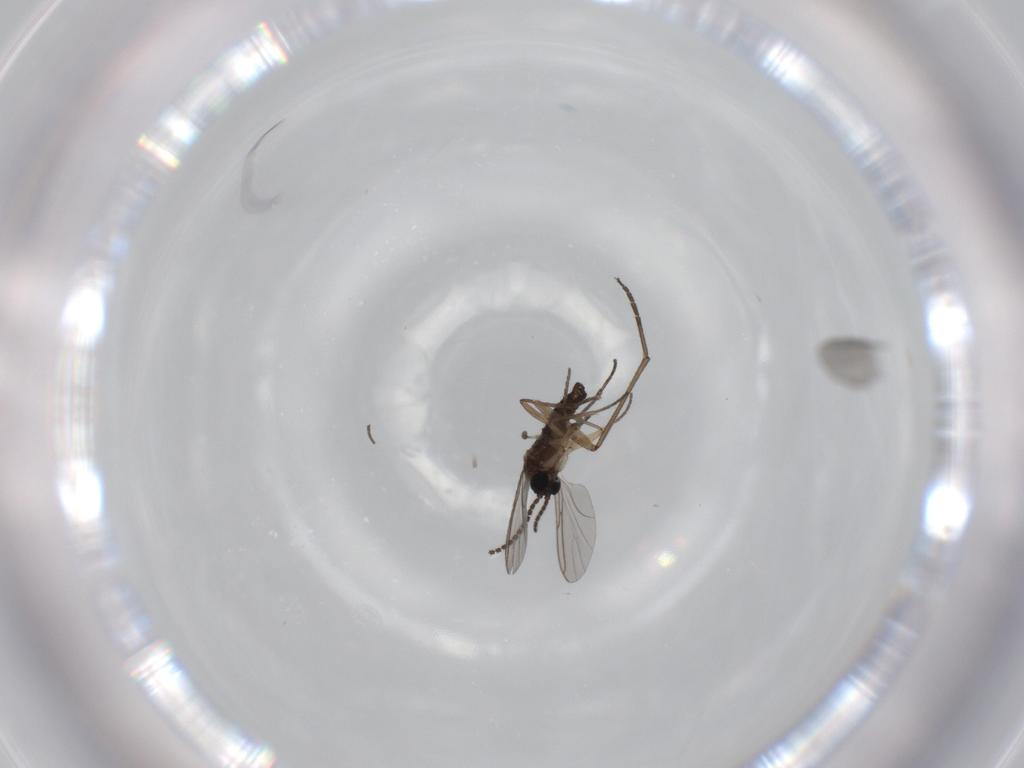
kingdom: Animalia
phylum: Arthropoda
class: Insecta
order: Diptera
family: Sciaridae
